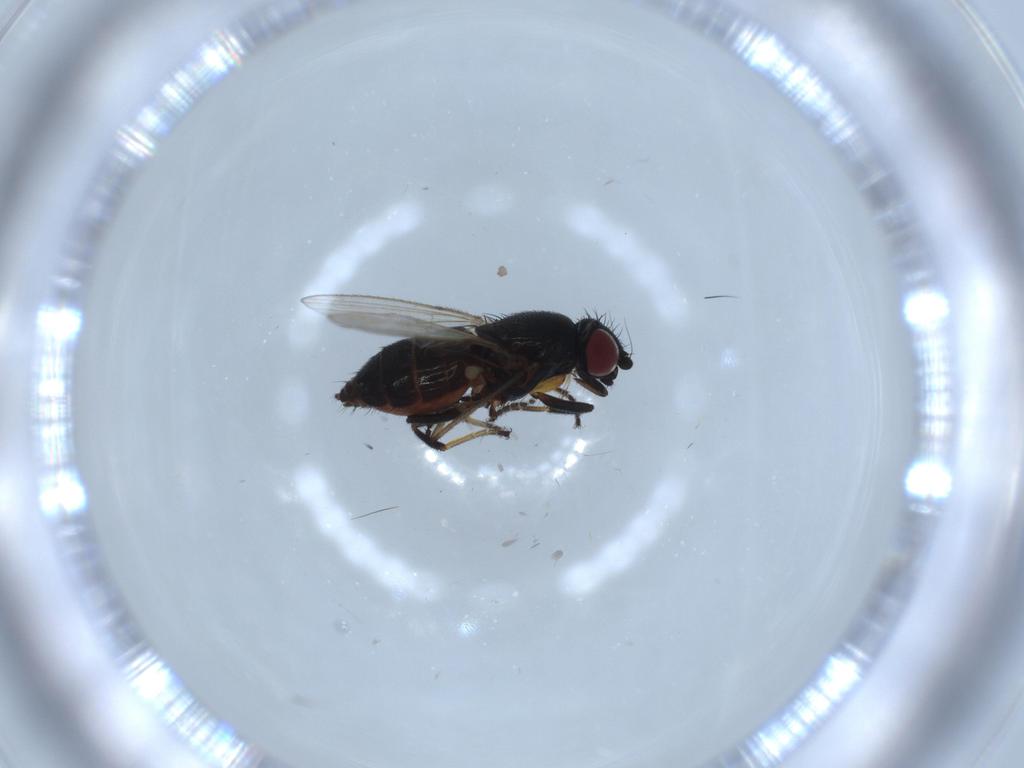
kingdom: Animalia
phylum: Arthropoda
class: Insecta
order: Diptera
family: Milichiidae
